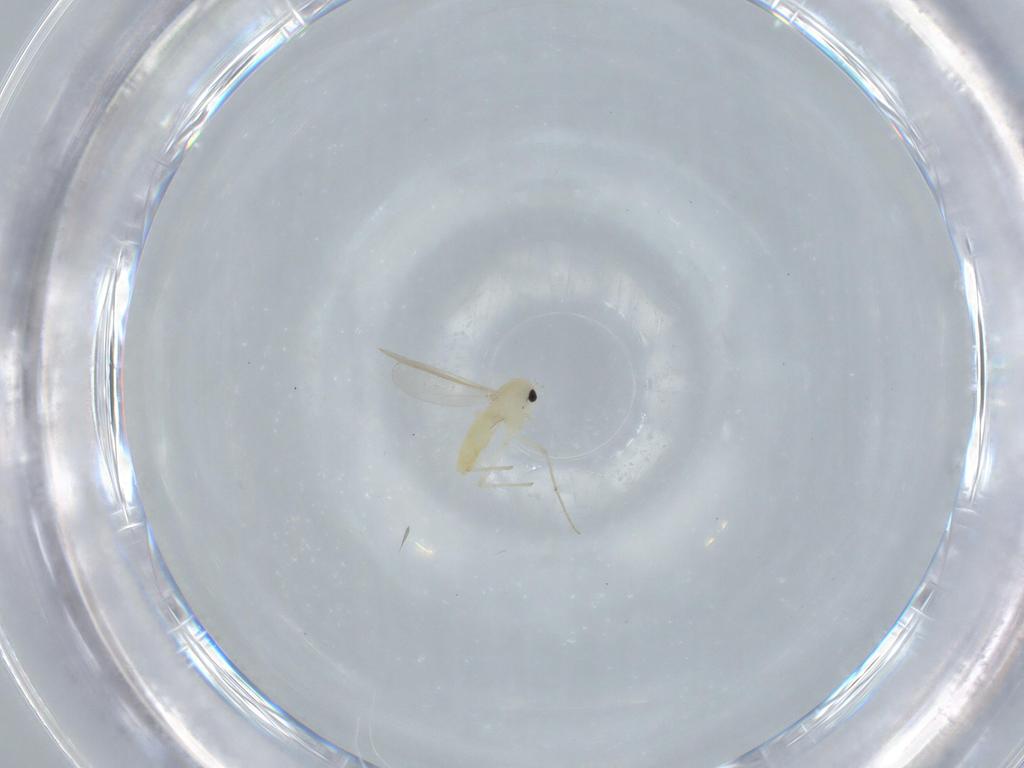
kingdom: Animalia
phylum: Arthropoda
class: Insecta
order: Diptera
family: Chironomidae
